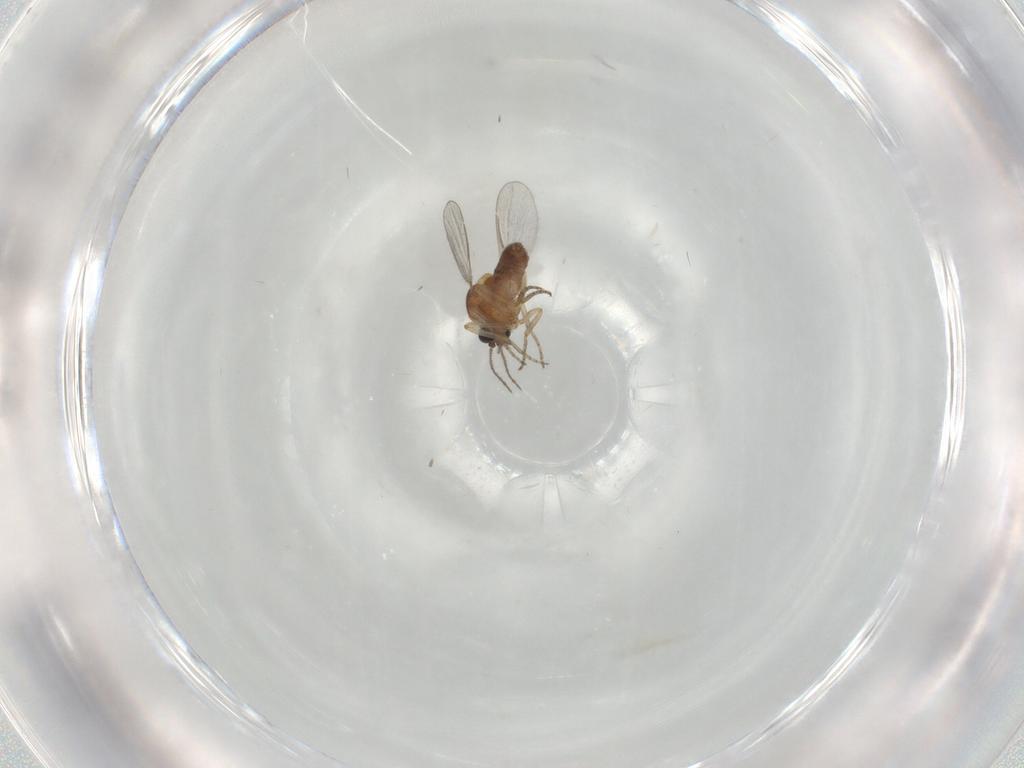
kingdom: Animalia
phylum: Arthropoda
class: Insecta
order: Diptera
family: Ceratopogonidae
